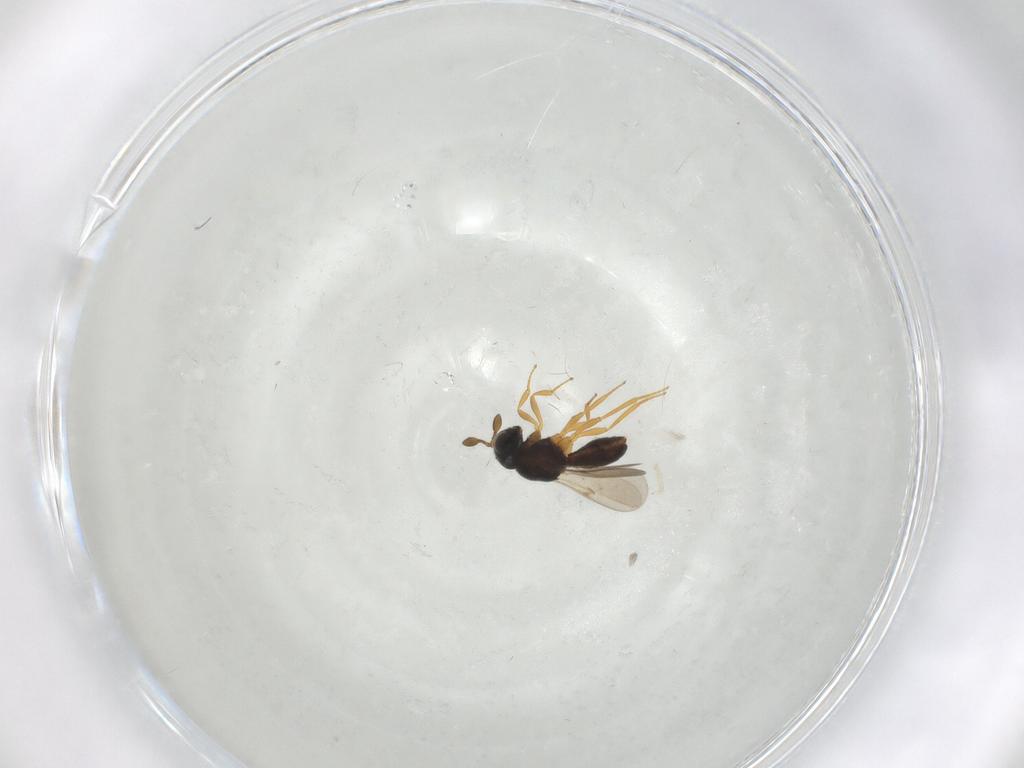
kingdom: Animalia
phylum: Arthropoda
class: Insecta
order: Hymenoptera
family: Scelionidae
